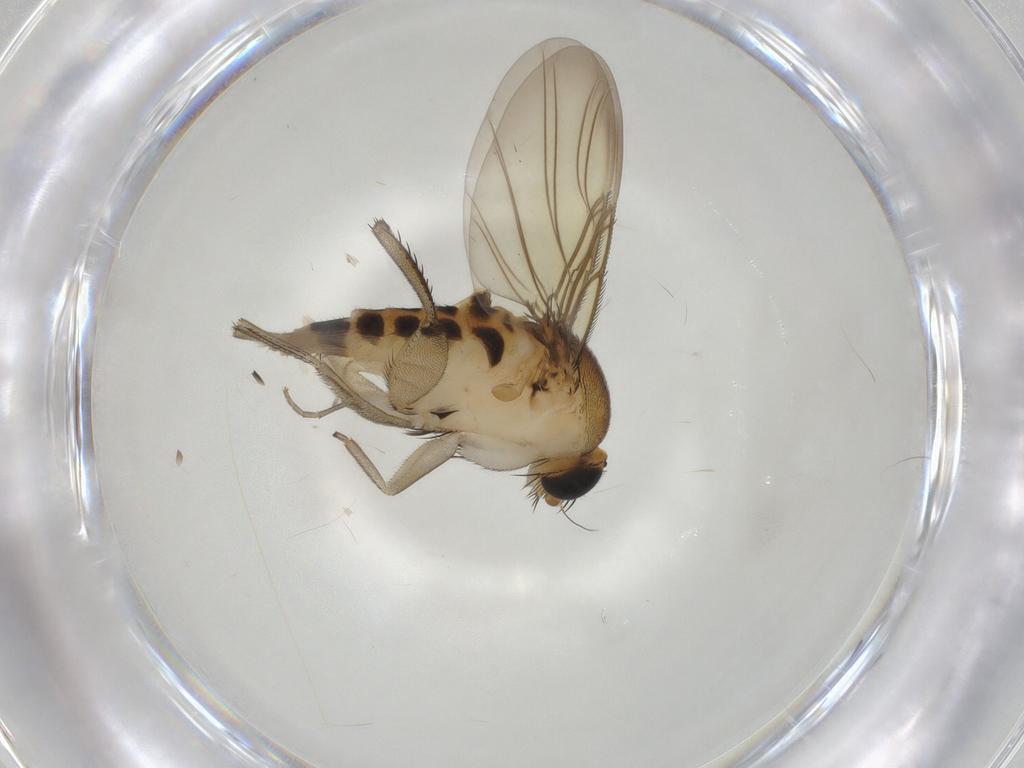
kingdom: Animalia
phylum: Arthropoda
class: Insecta
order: Diptera
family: Phoridae
